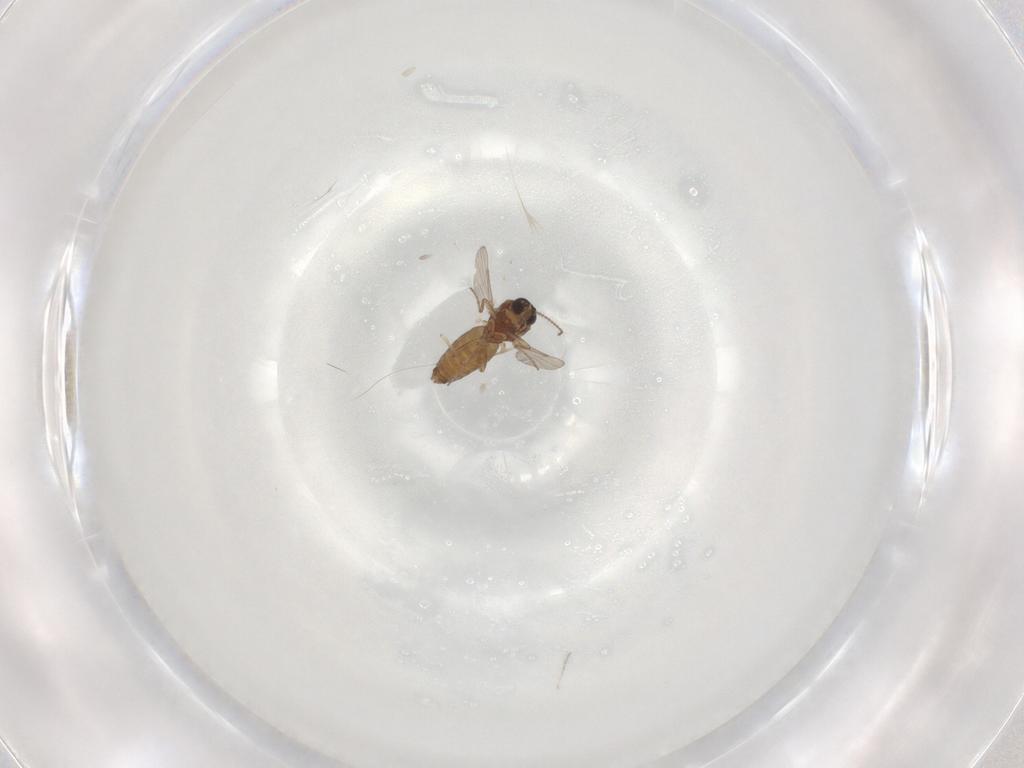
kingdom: Animalia
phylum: Arthropoda
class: Insecta
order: Diptera
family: Ceratopogonidae
